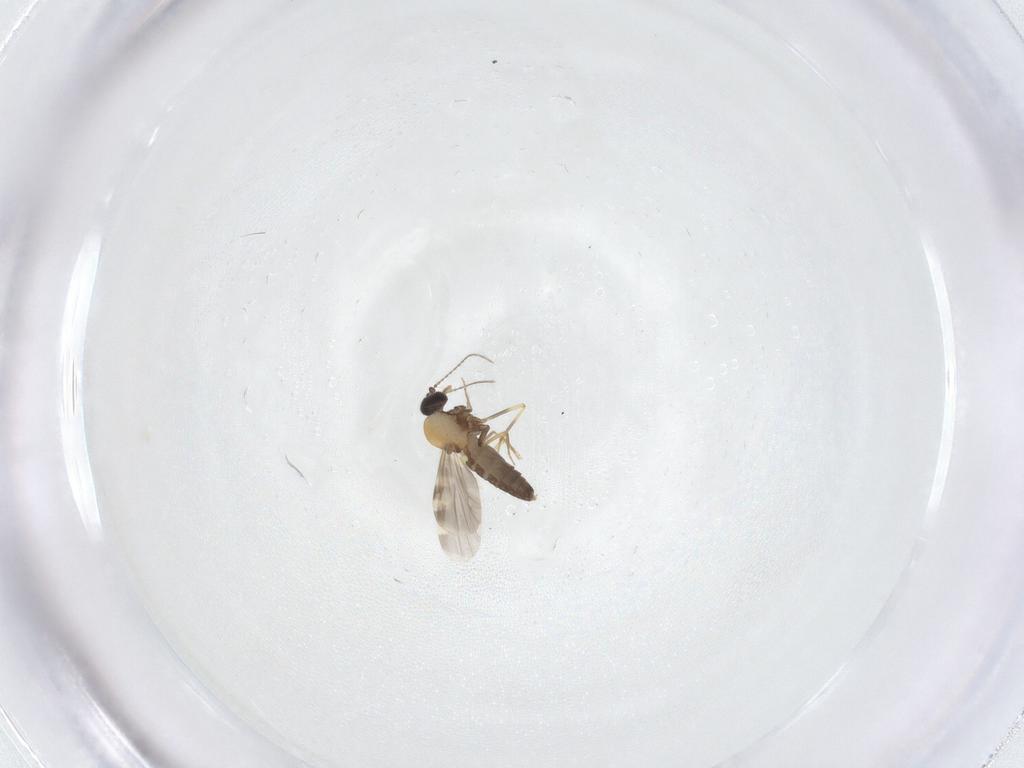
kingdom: Animalia
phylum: Arthropoda
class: Insecta
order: Diptera
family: Ceratopogonidae
